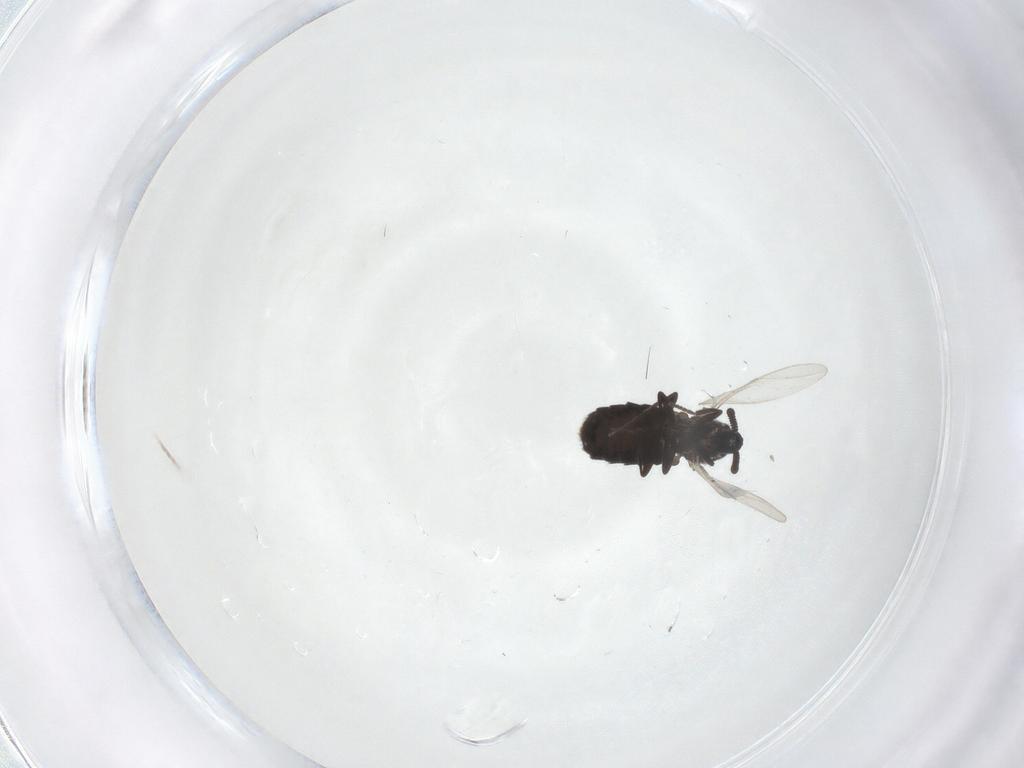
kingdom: Animalia
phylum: Arthropoda
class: Insecta
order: Diptera
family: Scatopsidae
